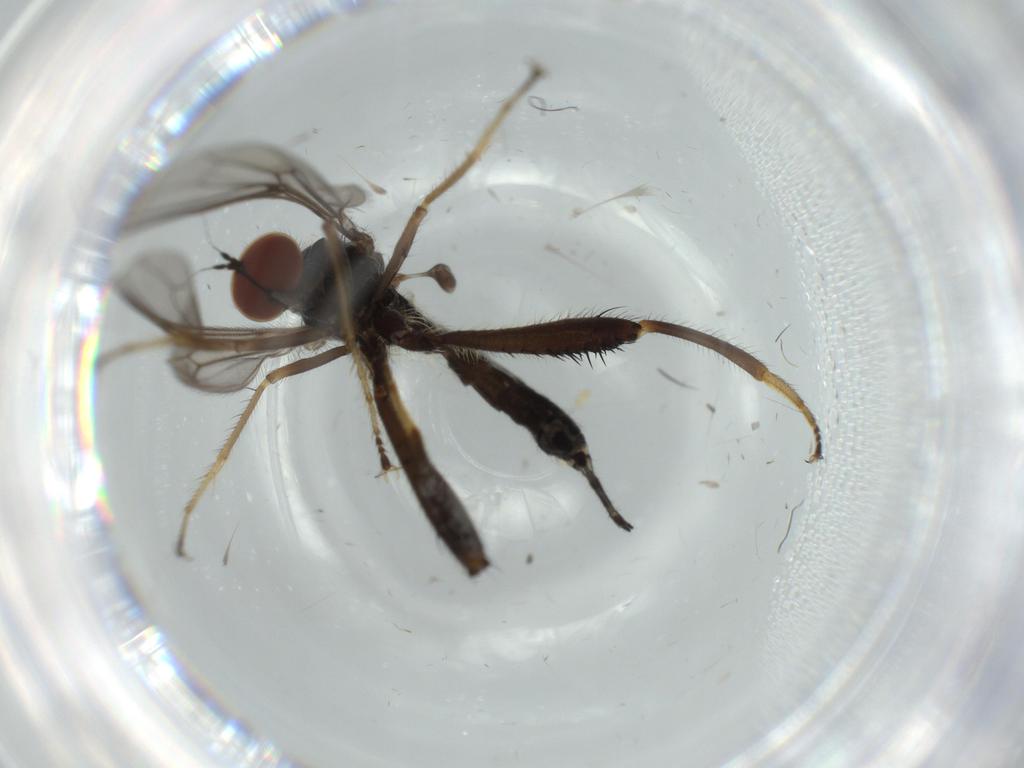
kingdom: Animalia
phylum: Arthropoda
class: Insecta
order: Diptera
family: Hybotidae
